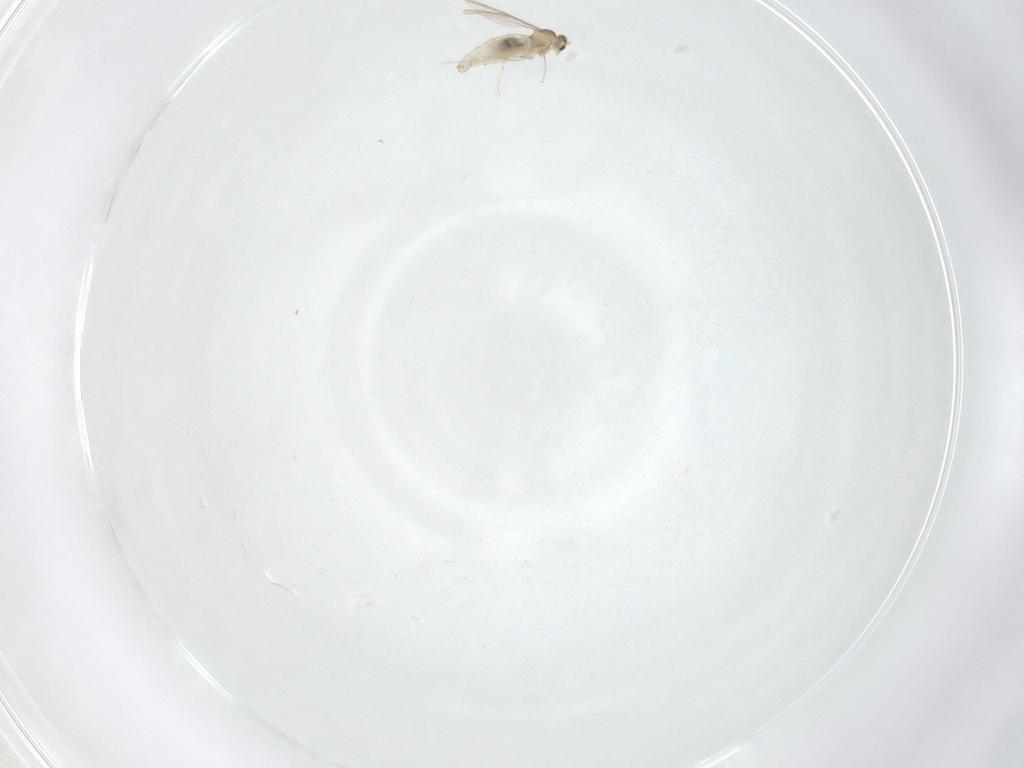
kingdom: Animalia
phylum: Arthropoda
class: Insecta
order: Diptera
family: Cecidomyiidae
